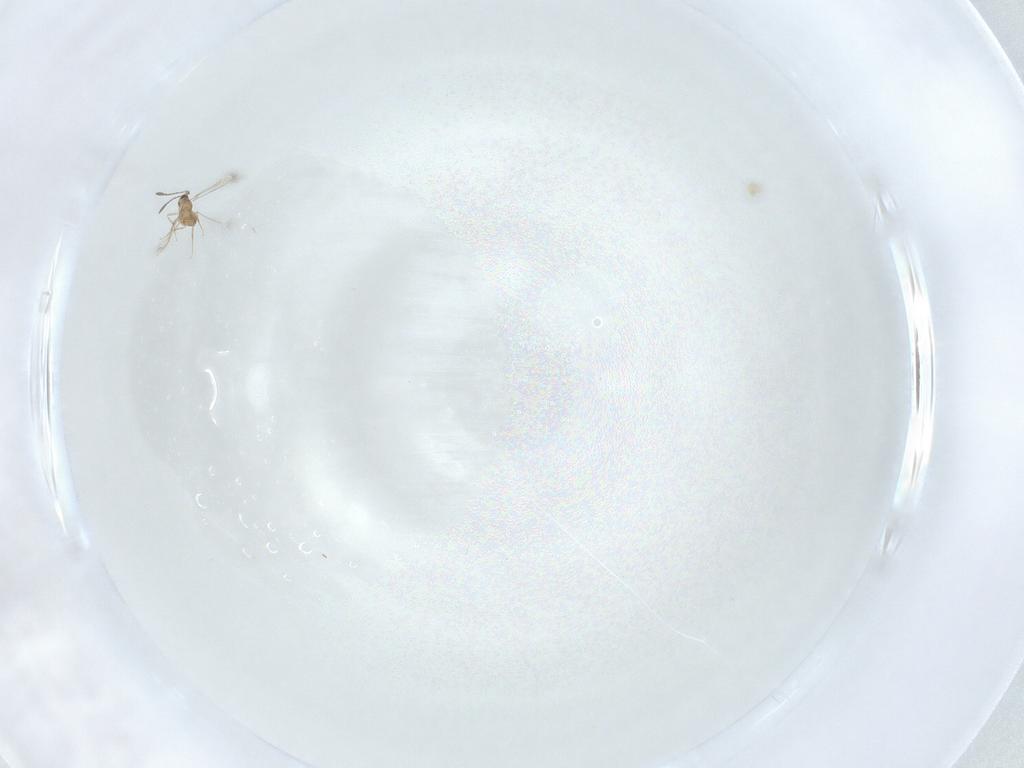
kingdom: Animalia
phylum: Arthropoda
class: Insecta
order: Hymenoptera
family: Mymaridae
